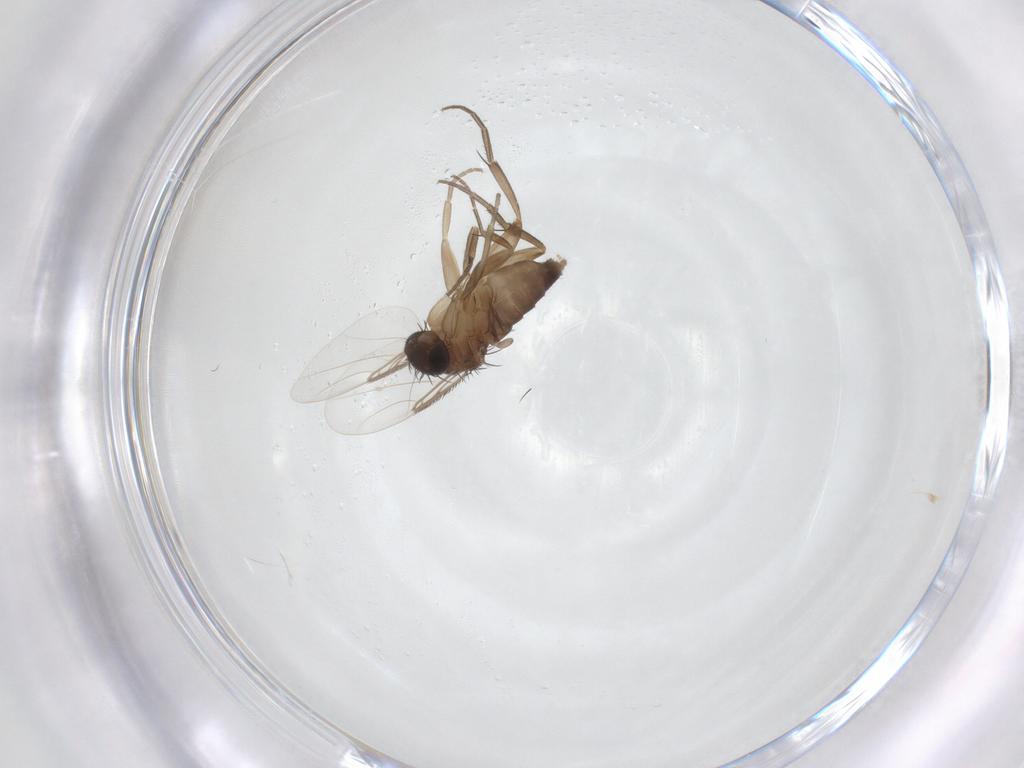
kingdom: Animalia
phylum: Arthropoda
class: Insecta
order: Diptera
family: Phoridae
